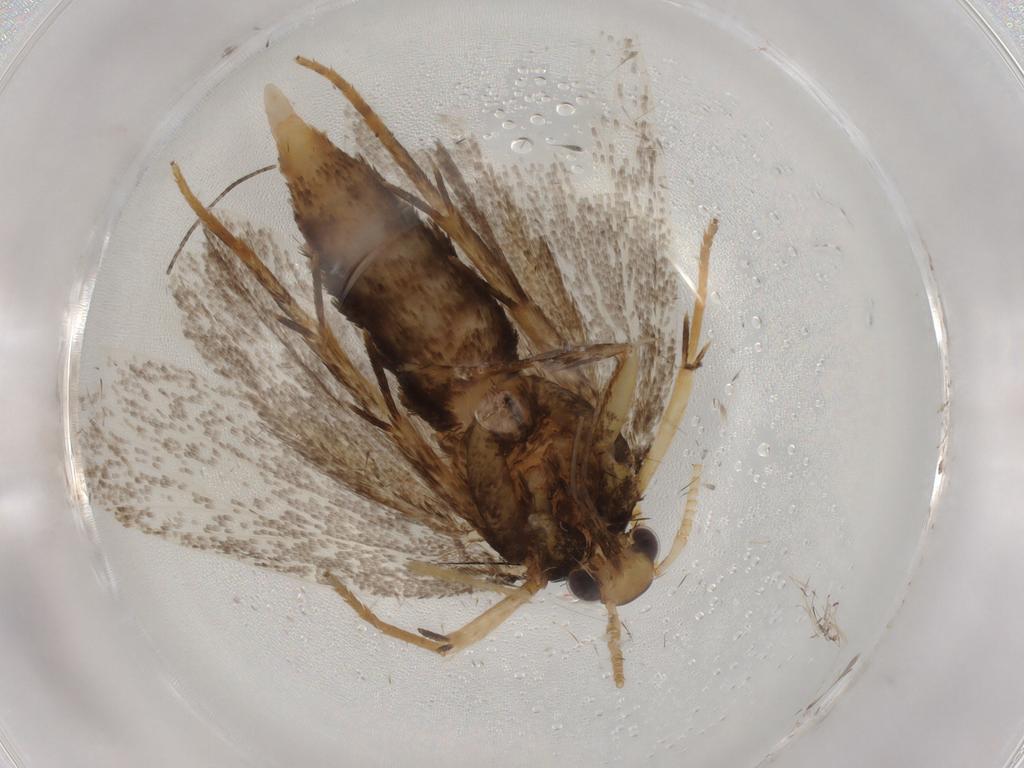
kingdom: Animalia
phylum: Arthropoda
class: Insecta
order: Lepidoptera
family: Lecithoceridae
